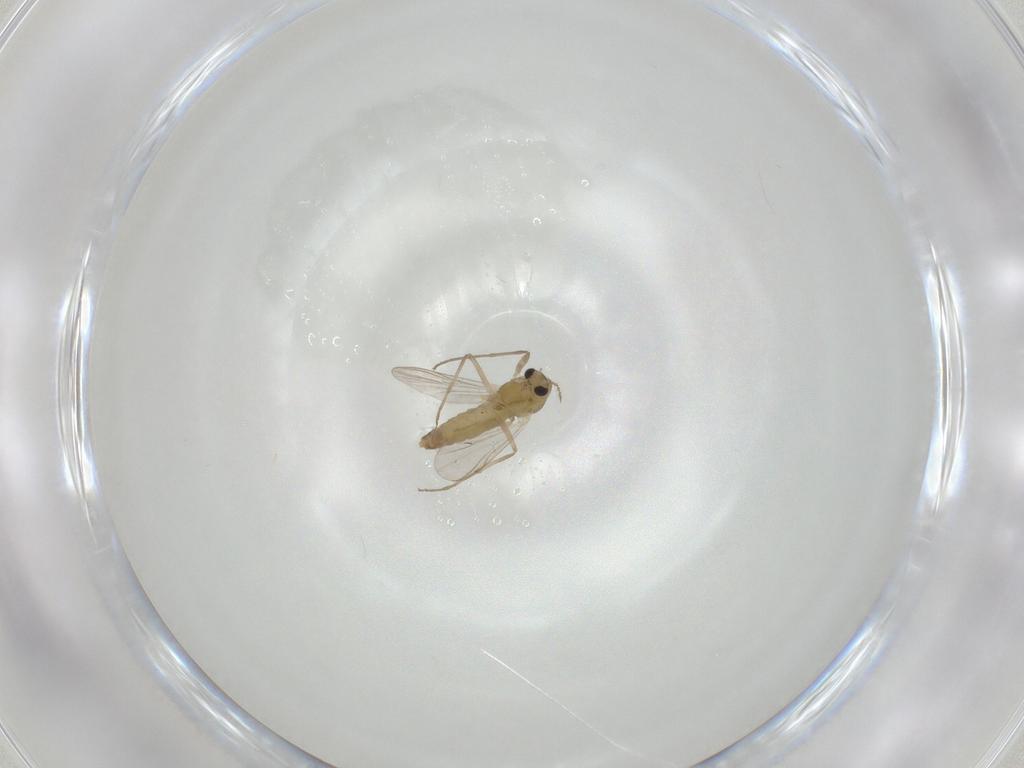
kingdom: Animalia
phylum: Arthropoda
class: Insecta
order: Diptera
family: Chironomidae
